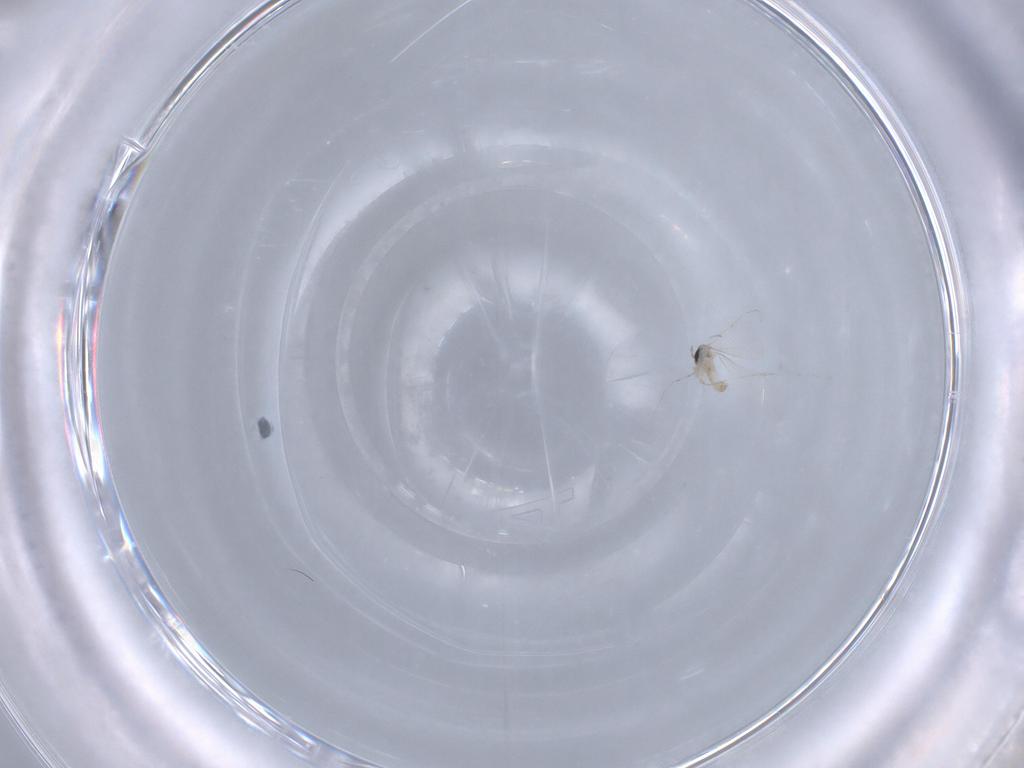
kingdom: Animalia
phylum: Arthropoda
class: Insecta
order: Diptera
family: Cecidomyiidae
